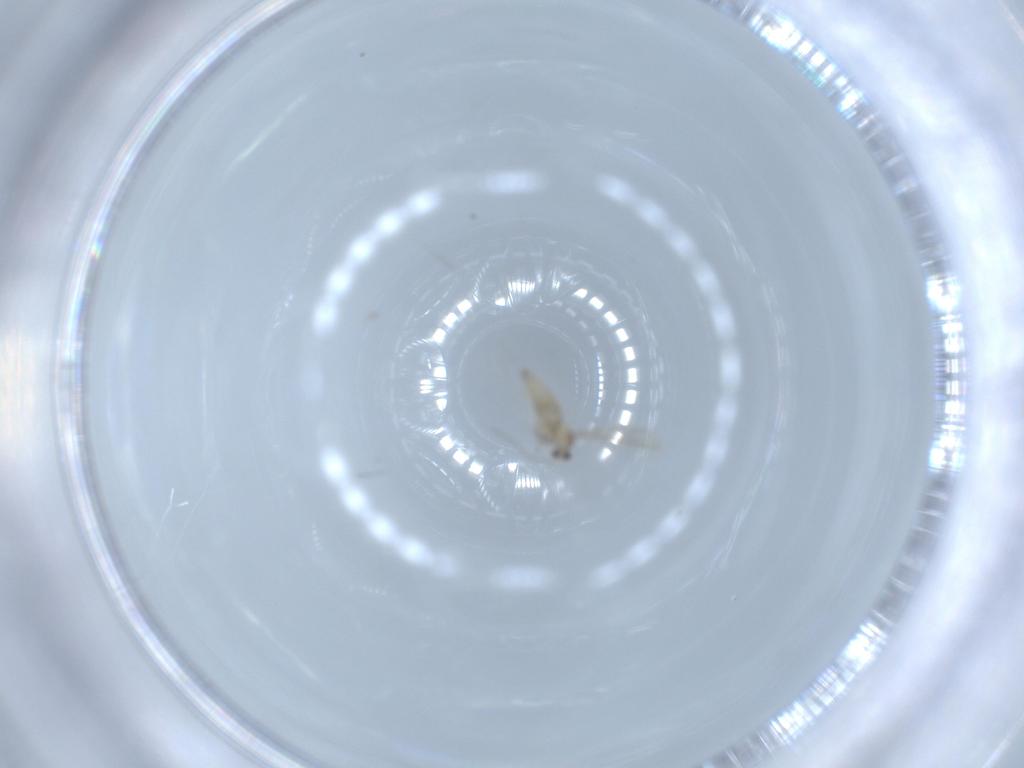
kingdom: Animalia
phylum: Arthropoda
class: Insecta
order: Diptera
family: Cecidomyiidae
